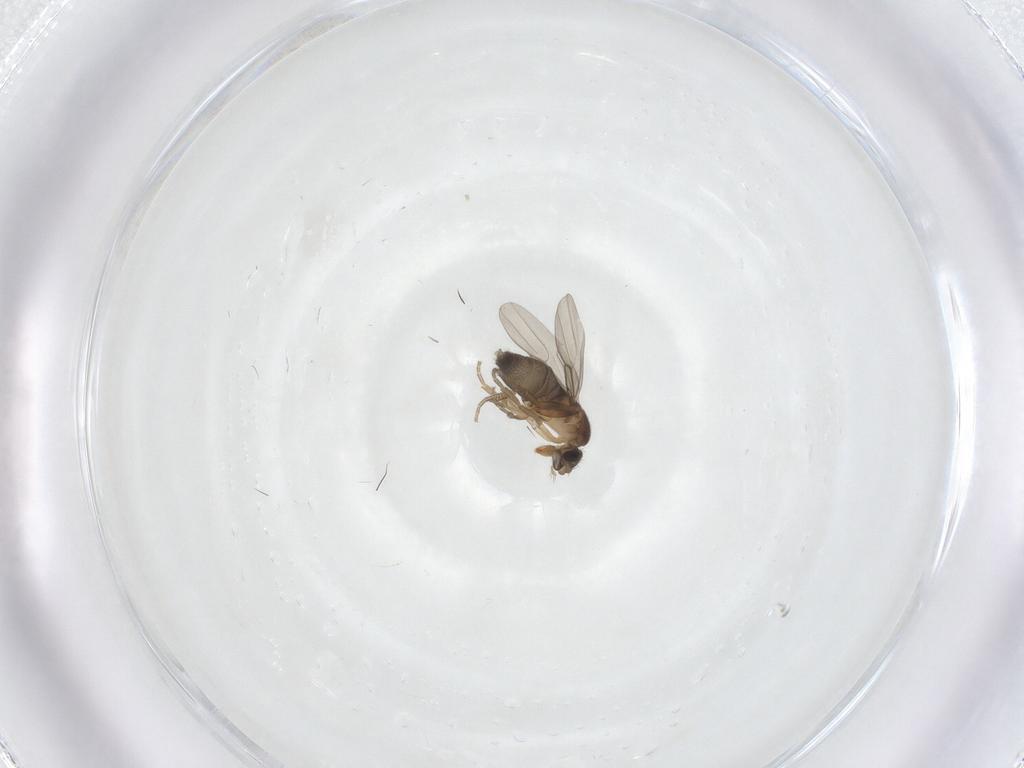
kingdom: Animalia
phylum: Arthropoda
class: Insecta
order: Diptera
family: Phoridae
